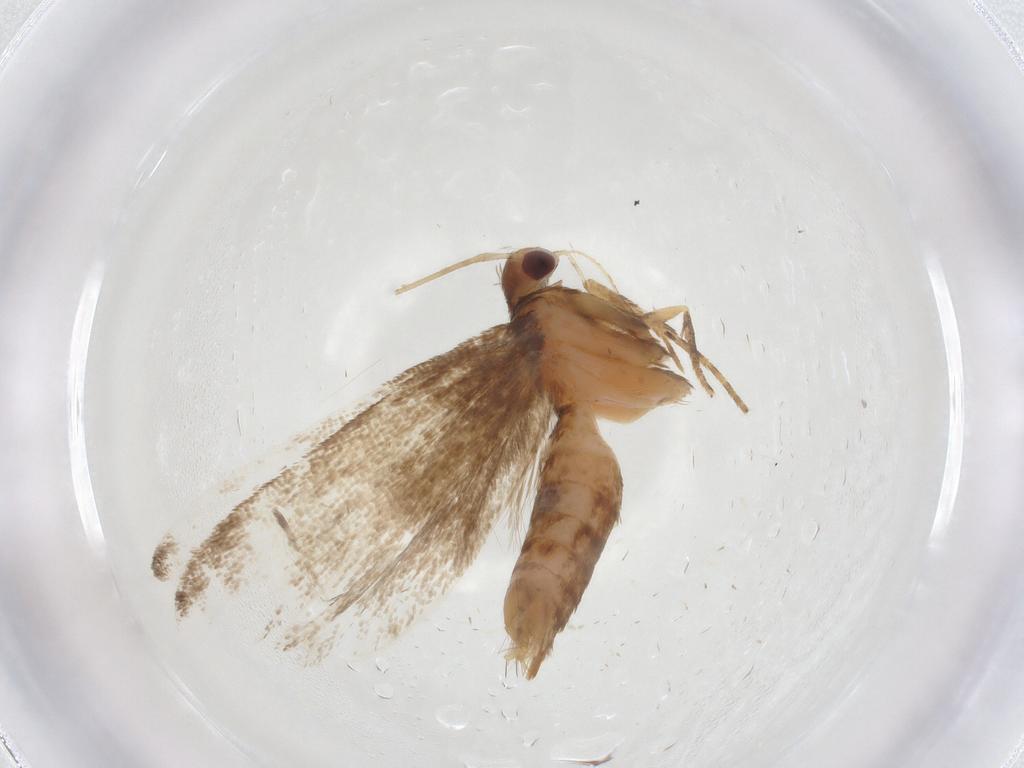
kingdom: Animalia
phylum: Arthropoda
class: Insecta
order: Lepidoptera
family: Gelechiidae
